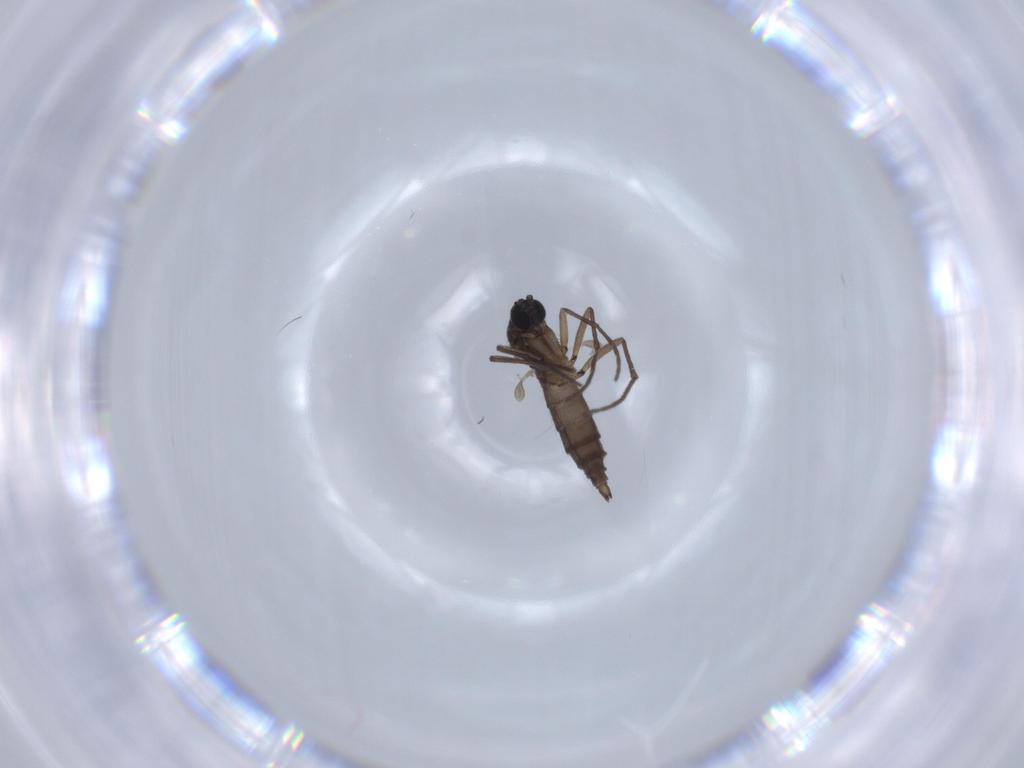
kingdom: Animalia
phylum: Arthropoda
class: Insecta
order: Diptera
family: Sciaridae
